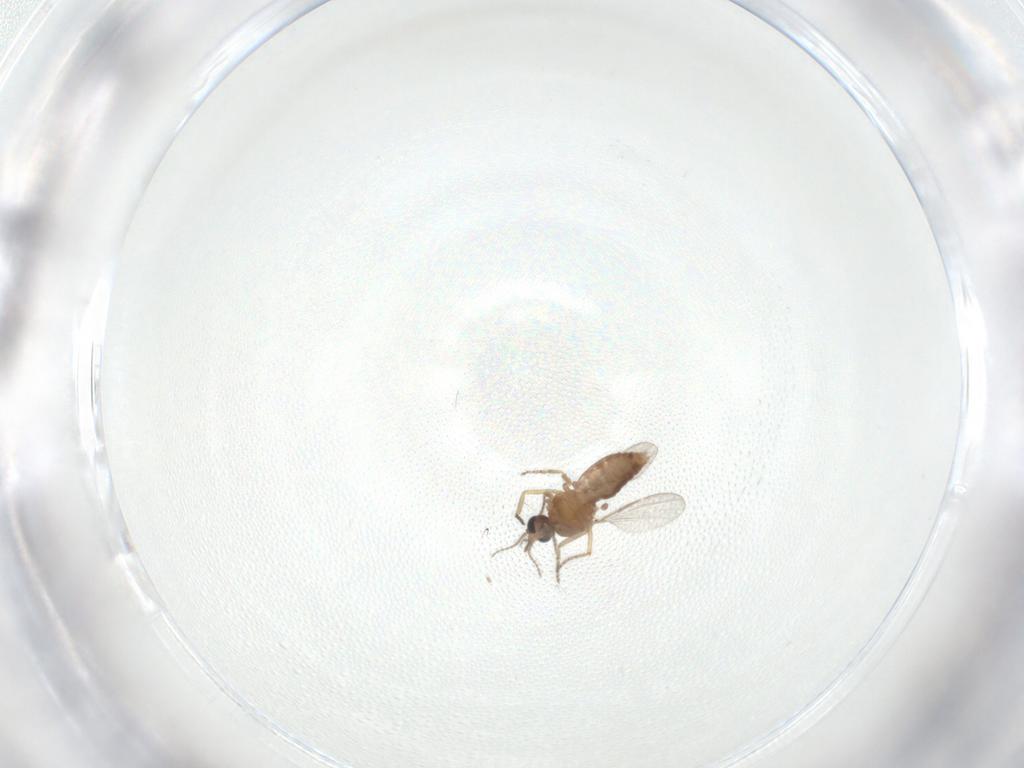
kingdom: Animalia
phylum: Arthropoda
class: Insecta
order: Diptera
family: Ceratopogonidae
